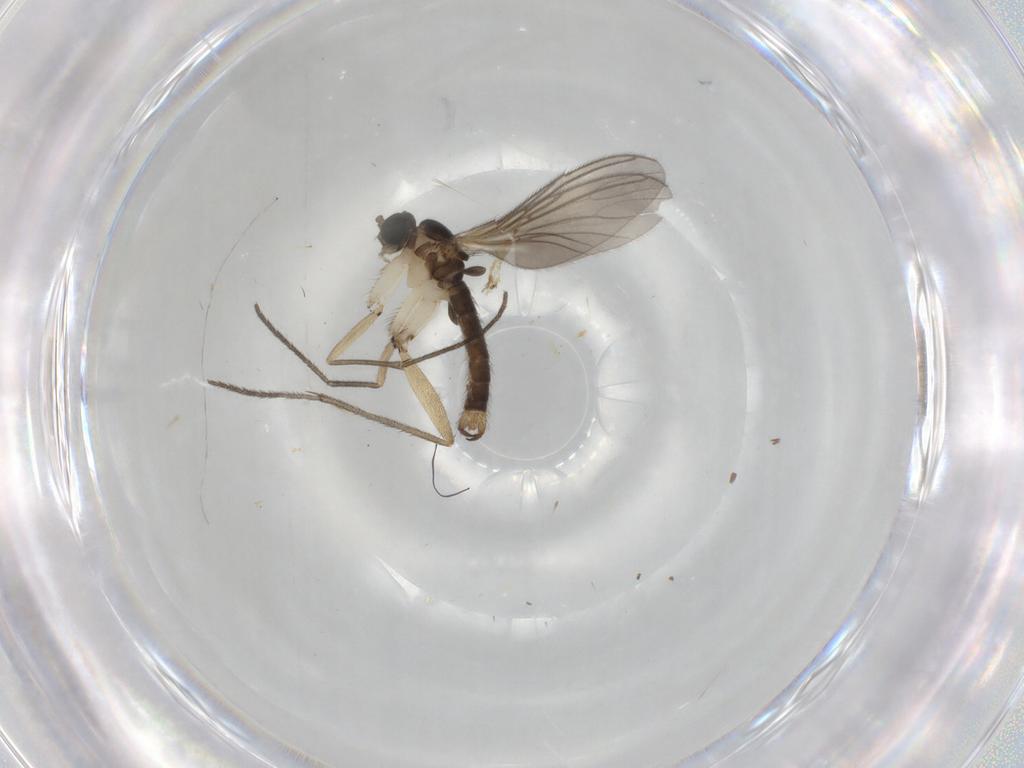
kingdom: Animalia
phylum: Arthropoda
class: Insecta
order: Diptera
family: Sciaridae
